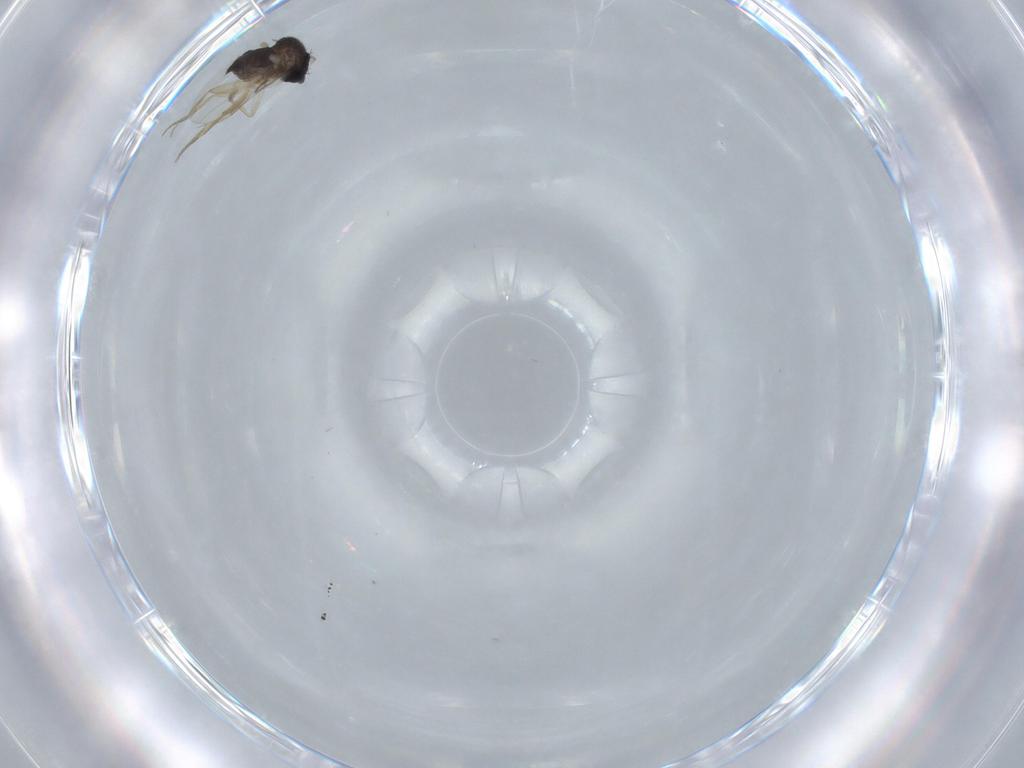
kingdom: Animalia
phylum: Arthropoda
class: Insecta
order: Diptera
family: Phoridae
